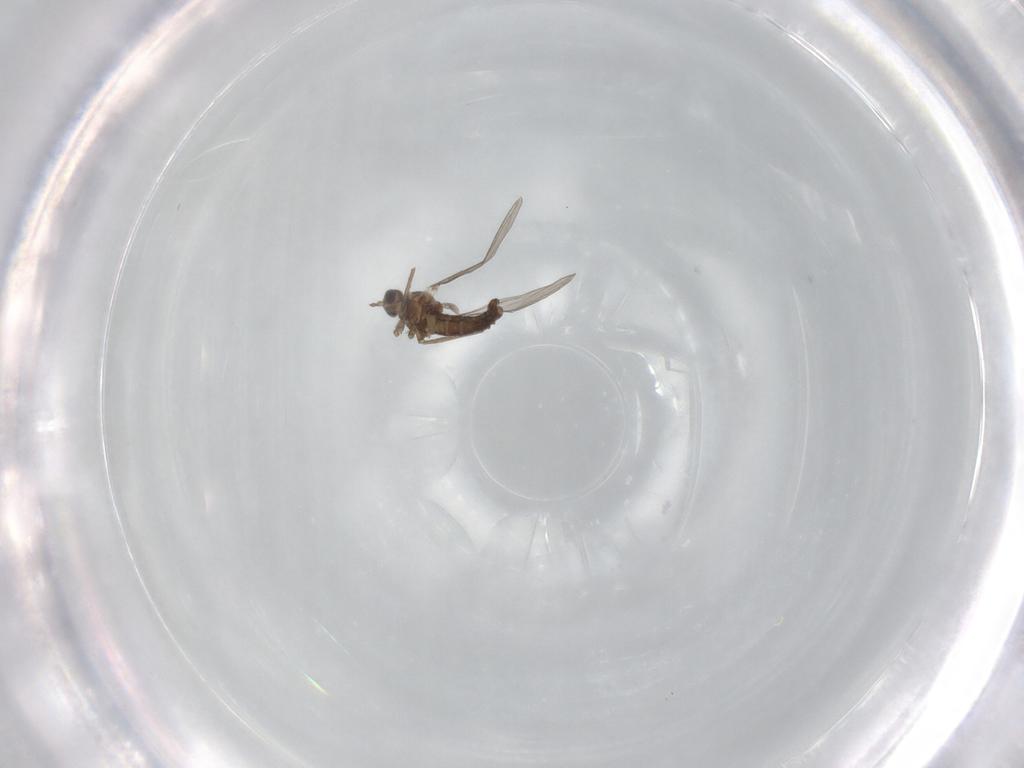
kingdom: Animalia
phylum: Arthropoda
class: Insecta
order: Diptera
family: Cecidomyiidae
